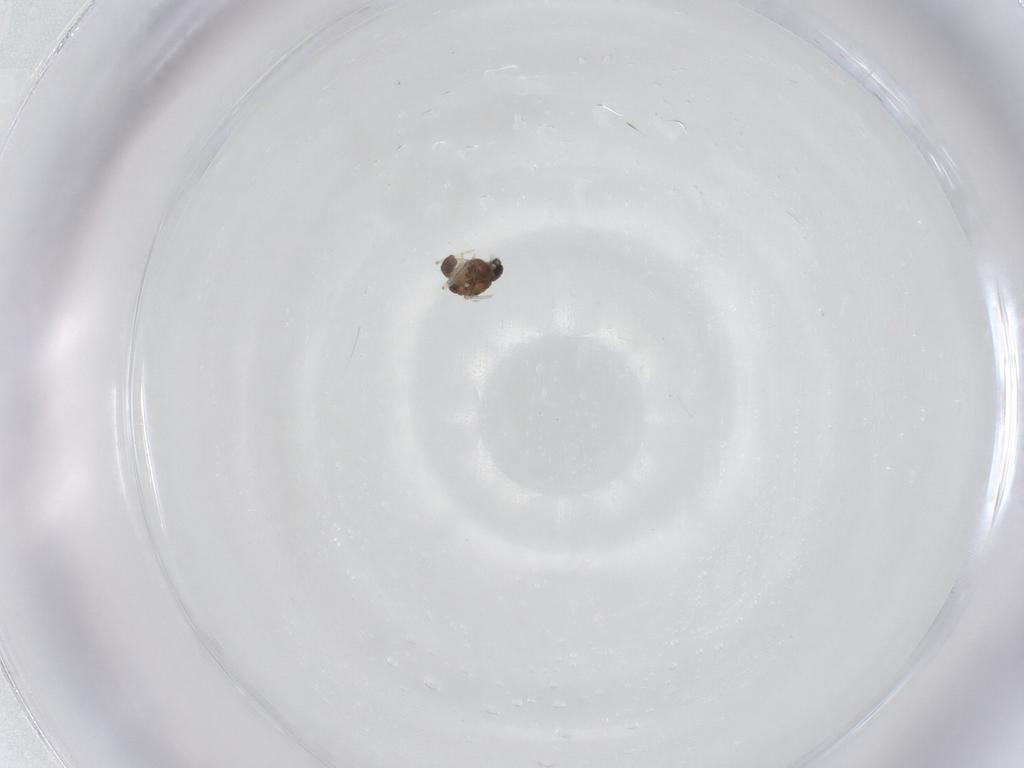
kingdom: Animalia
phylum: Arthropoda
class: Insecta
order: Diptera
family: Chironomidae
